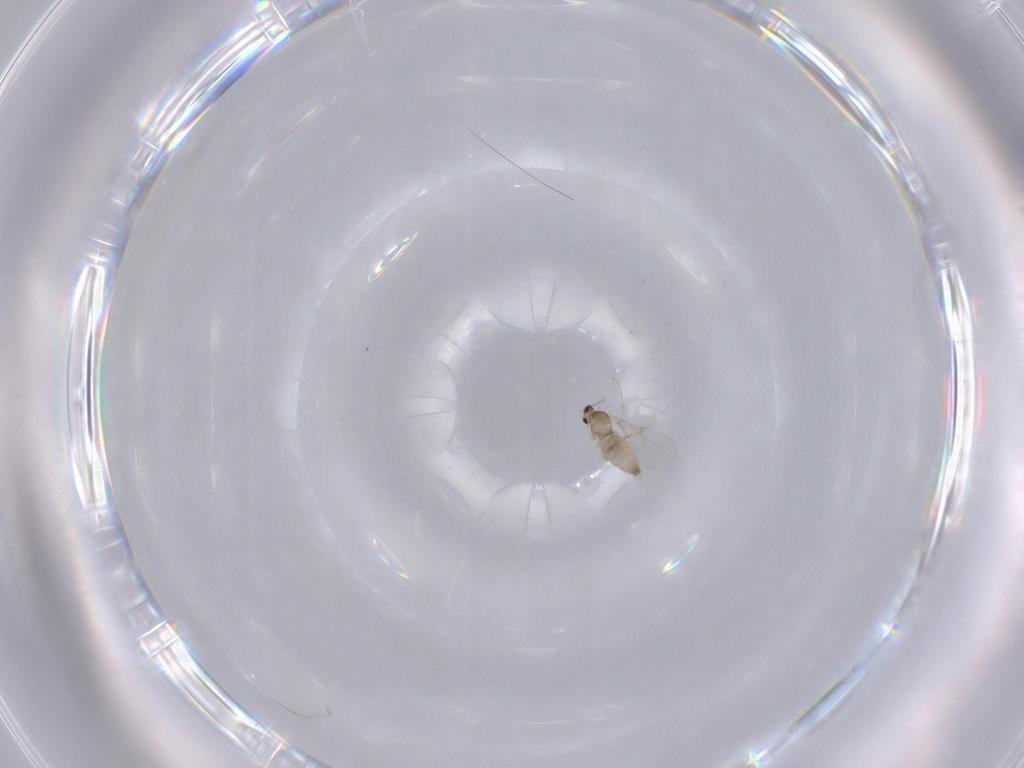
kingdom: Animalia
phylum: Arthropoda
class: Insecta
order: Diptera
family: Cecidomyiidae
